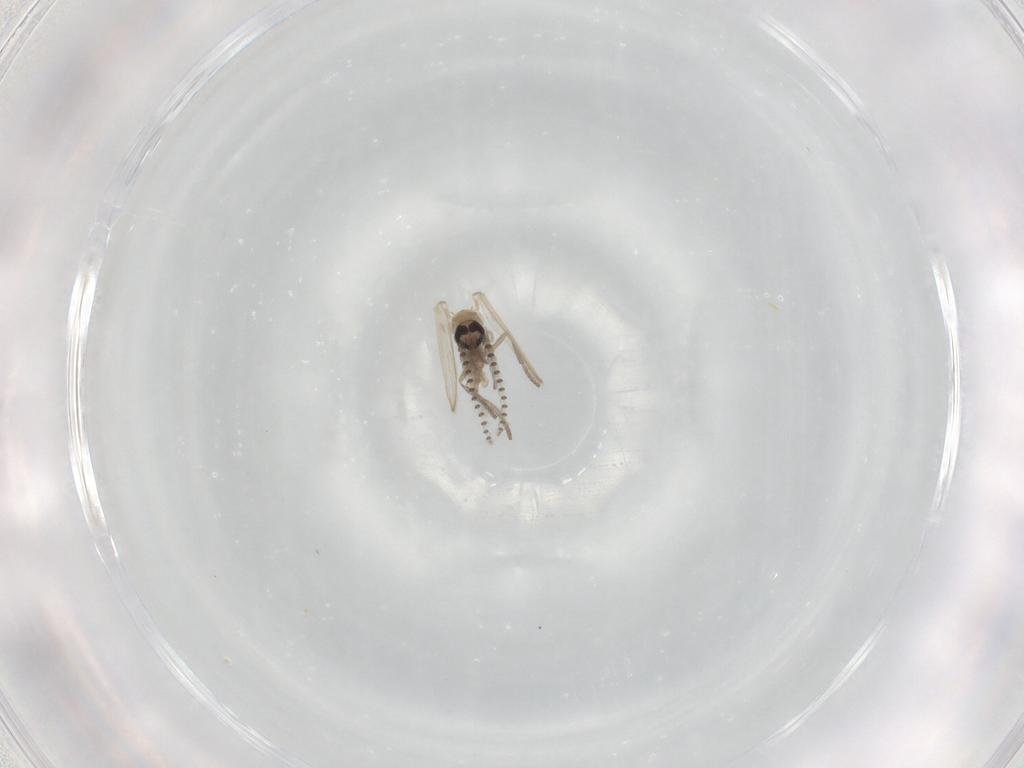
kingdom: Animalia
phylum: Arthropoda
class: Insecta
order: Diptera
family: Psychodidae
